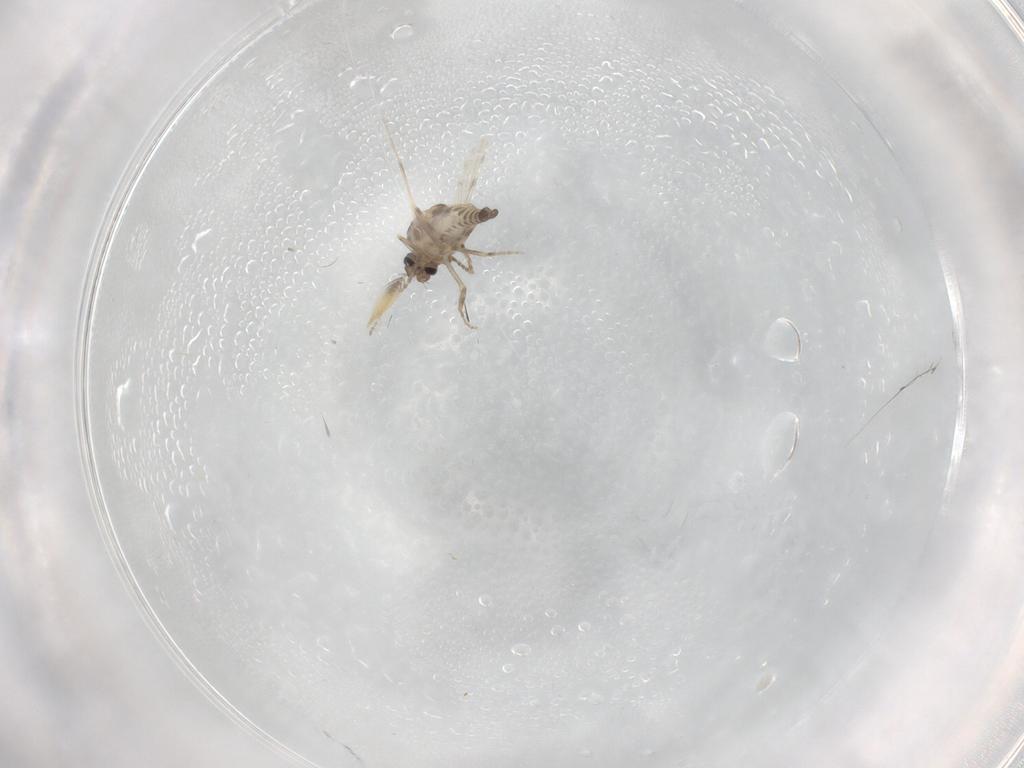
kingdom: Animalia
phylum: Arthropoda
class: Insecta
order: Diptera
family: Ceratopogonidae
